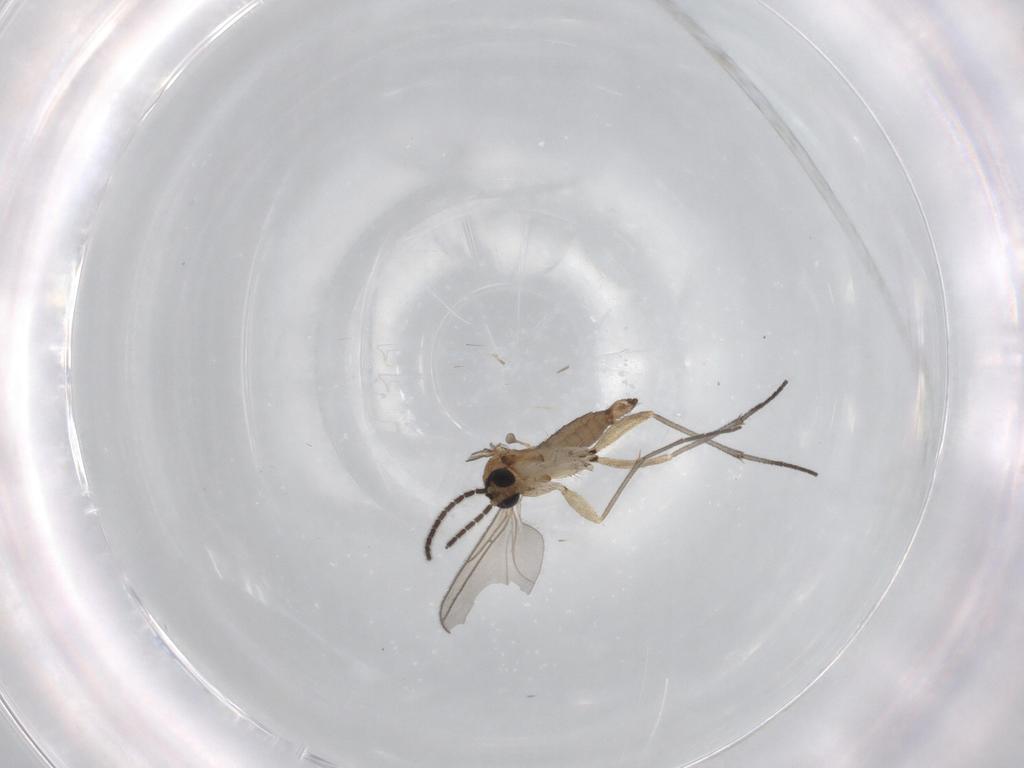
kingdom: Animalia
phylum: Arthropoda
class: Insecta
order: Diptera
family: Sciaridae
